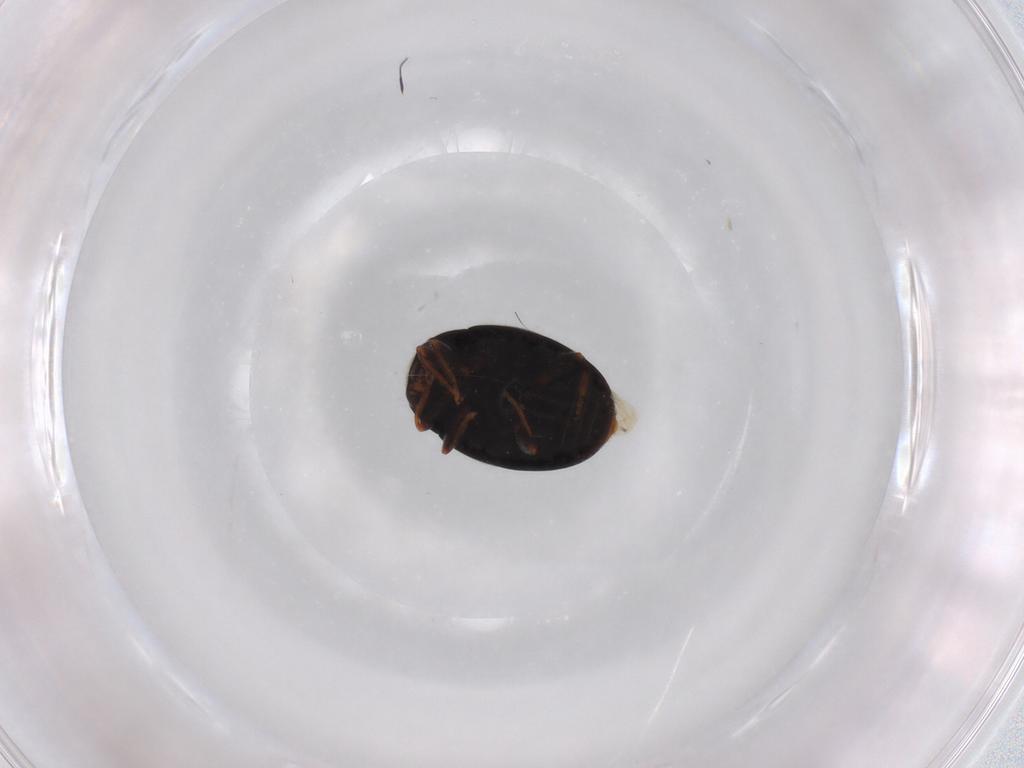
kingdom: Animalia
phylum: Arthropoda
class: Insecta
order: Coleoptera
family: Coccinellidae
